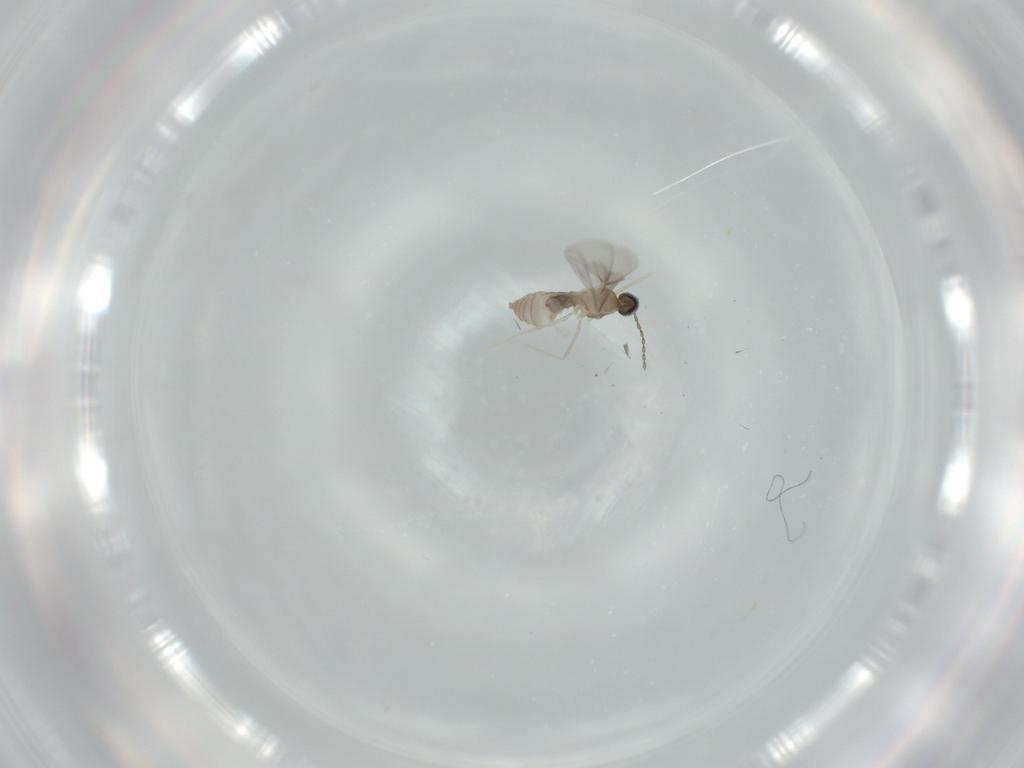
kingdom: Animalia
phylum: Arthropoda
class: Insecta
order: Diptera
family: Cecidomyiidae
